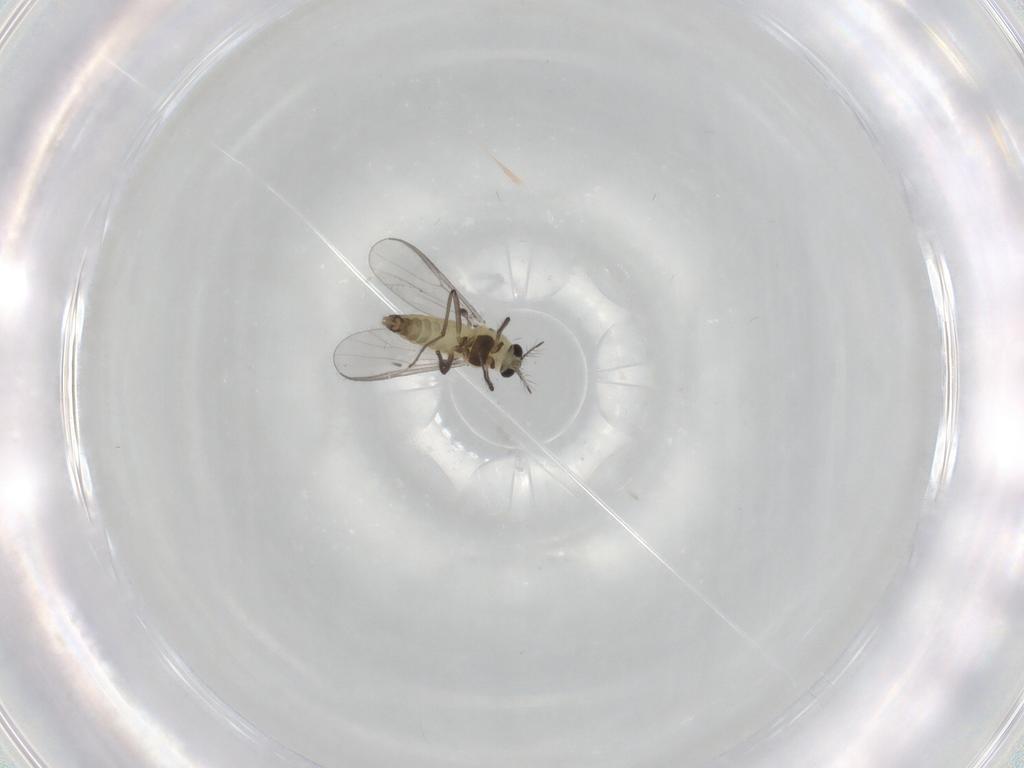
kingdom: Animalia
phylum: Arthropoda
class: Insecta
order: Diptera
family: Chironomidae
